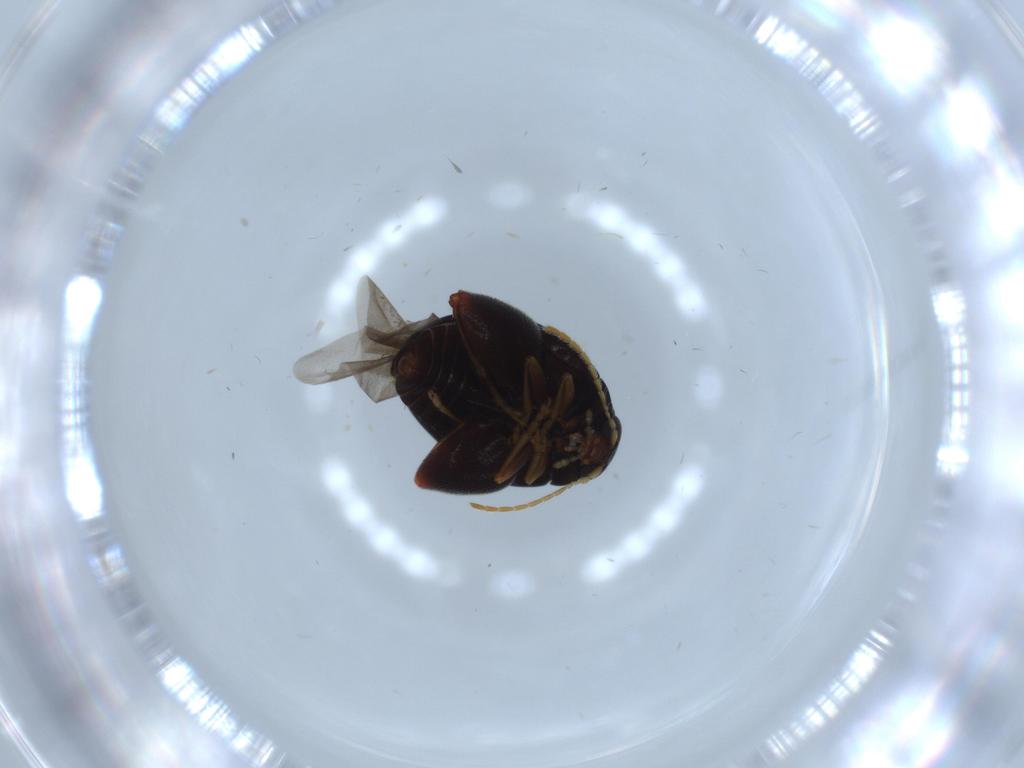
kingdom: Animalia
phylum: Arthropoda
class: Insecta
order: Coleoptera
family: Chrysomelidae
